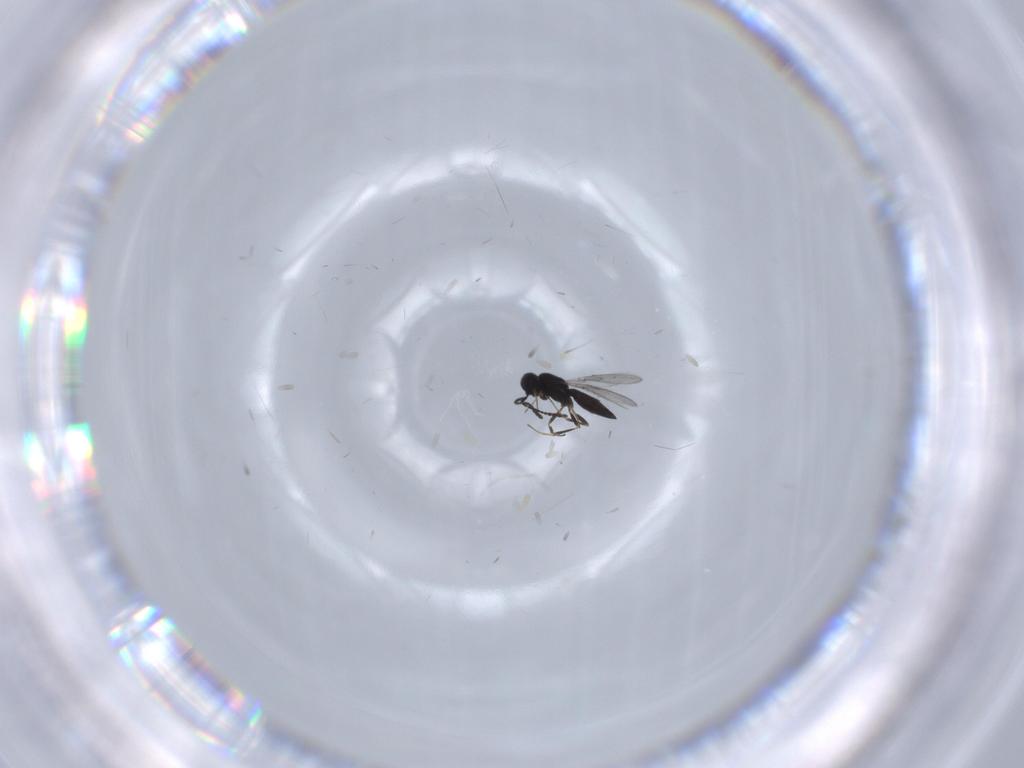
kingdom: Animalia
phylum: Arthropoda
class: Insecta
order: Hymenoptera
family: Scelionidae
